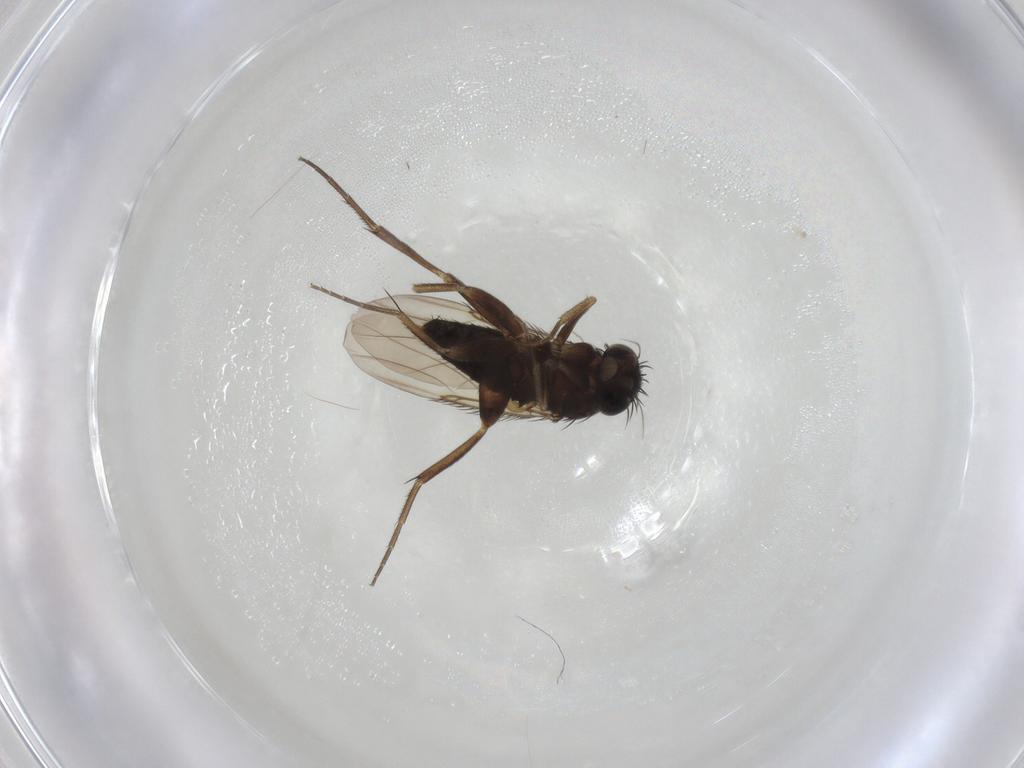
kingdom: Animalia
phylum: Arthropoda
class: Insecta
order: Diptera
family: Phoridae
